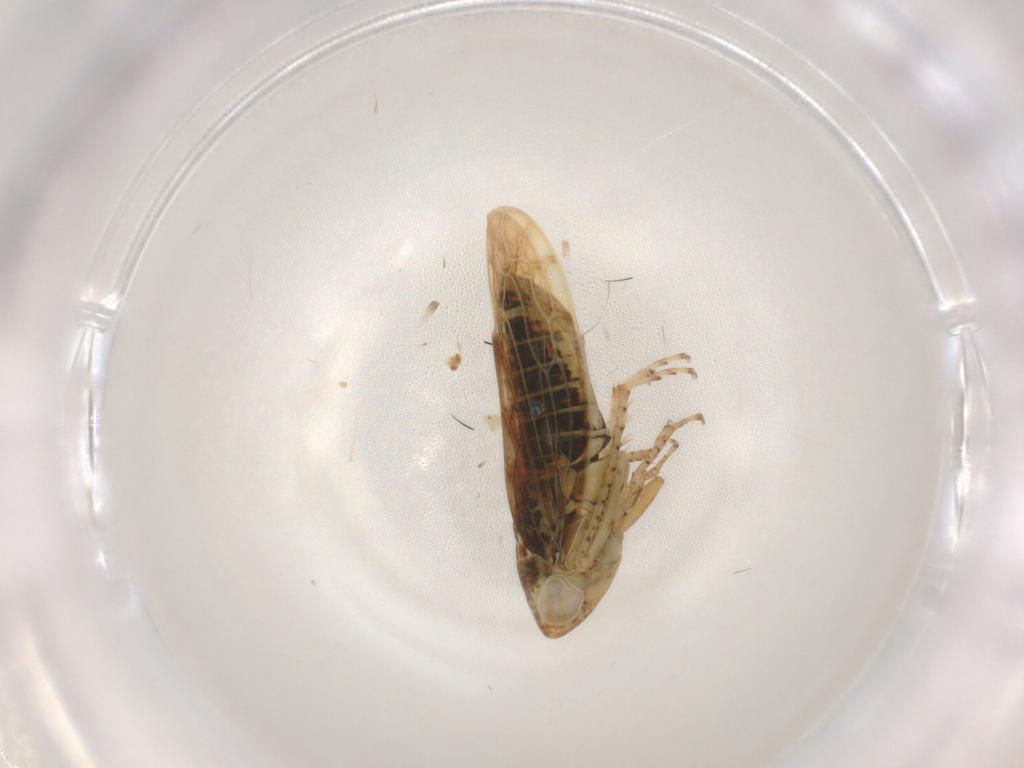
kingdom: Animalia
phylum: Arthropoda
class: Insecta
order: Hemiptera
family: Cicadellidae
